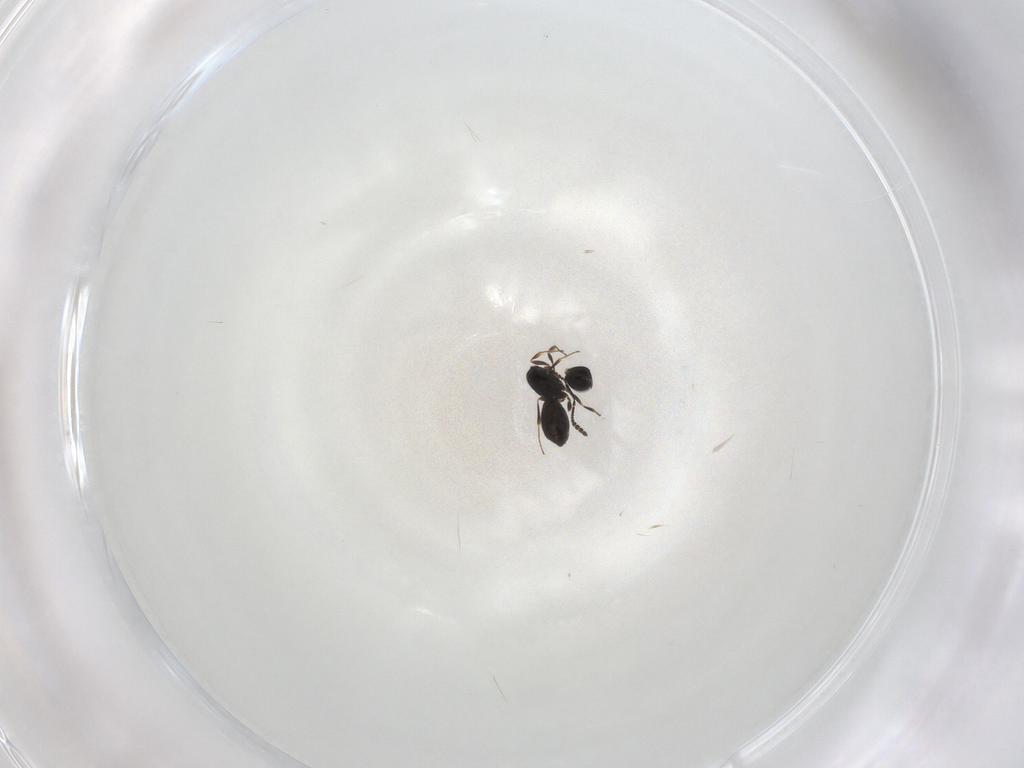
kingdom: Animalia
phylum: Arthropoda
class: Insecta
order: Hymenoptera
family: Scelionidae
